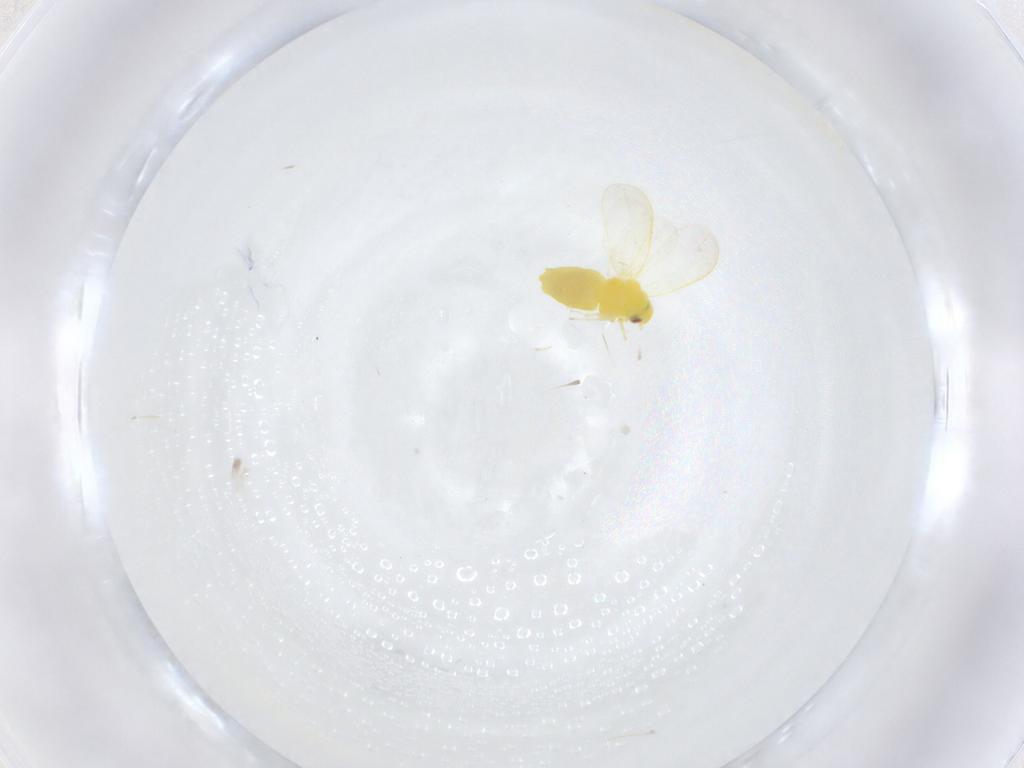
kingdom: Animalia
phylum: Arthropoda
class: Insecta
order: Hemiptera
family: Aleyrodidae
